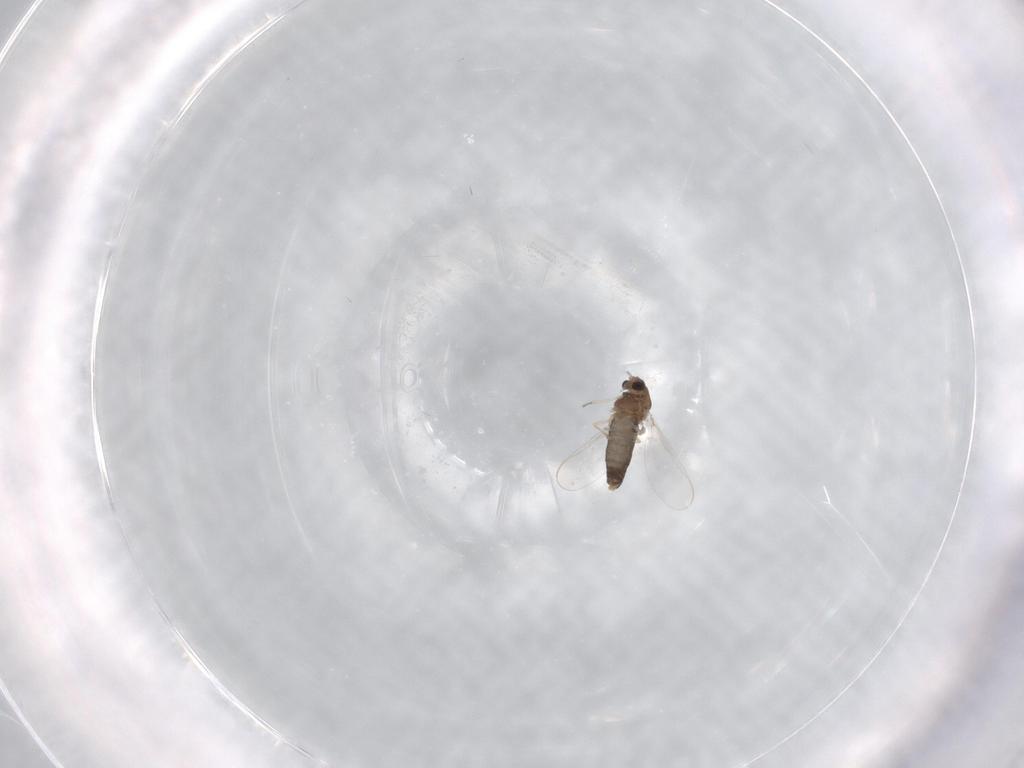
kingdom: Animalia
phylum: Arthropoda
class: Insecta
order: Diptera
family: Chironomidae
